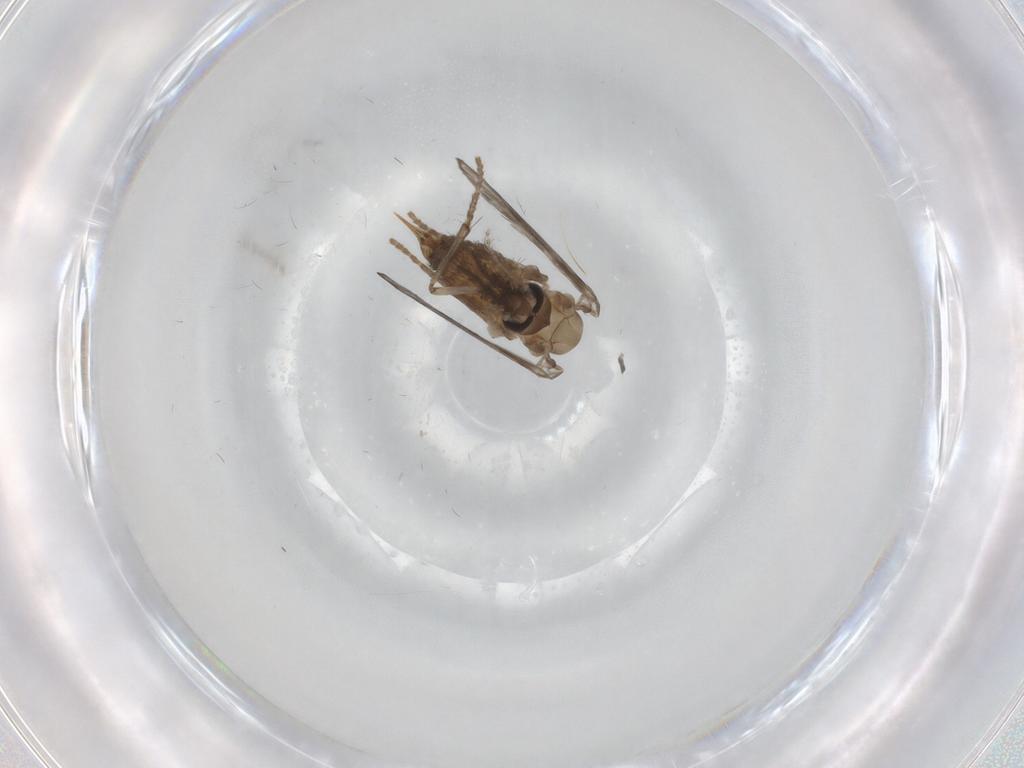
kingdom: Animalia
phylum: Arthropoda
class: Insecta
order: Diptera
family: Psychodidae
